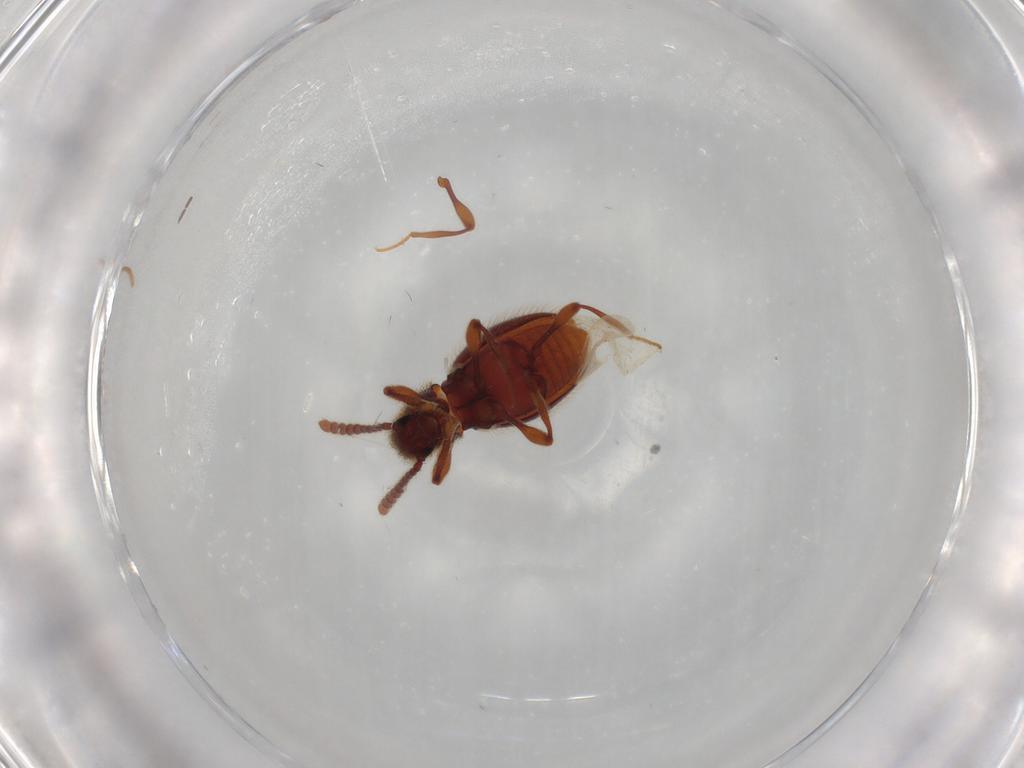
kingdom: Animalia
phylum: Arthropoda
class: Insecta
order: Coleoptera
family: Staphylinidae
